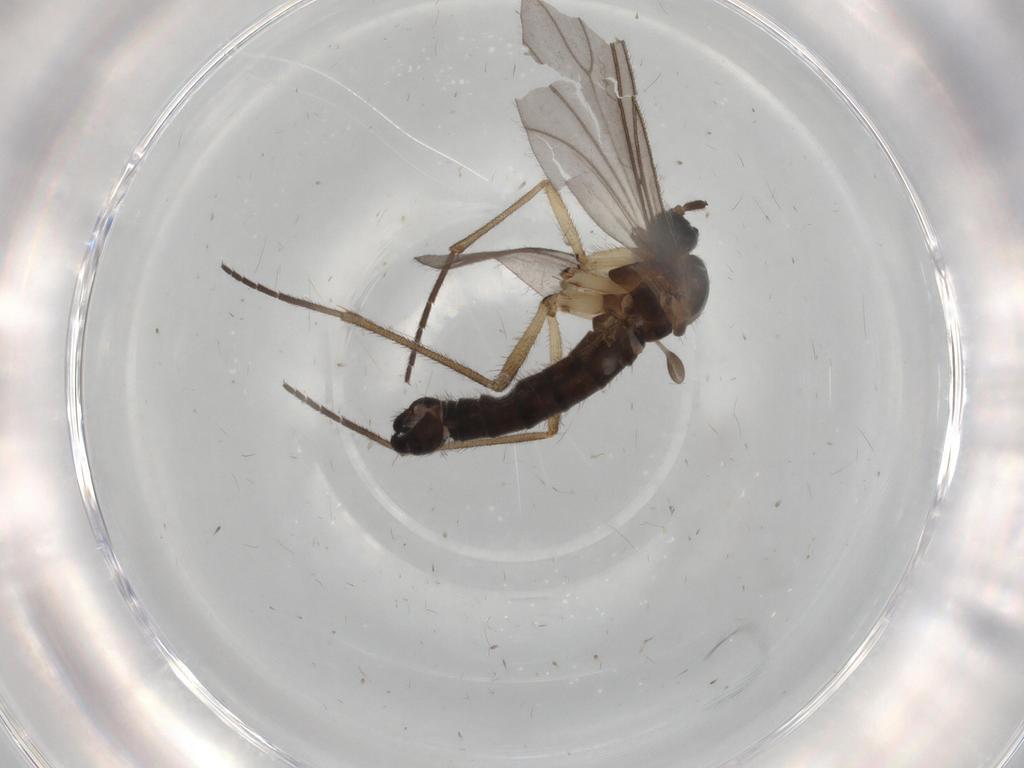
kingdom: Animalia
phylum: Arthropoda
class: Insecta
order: Diptera
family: Sciaridae
